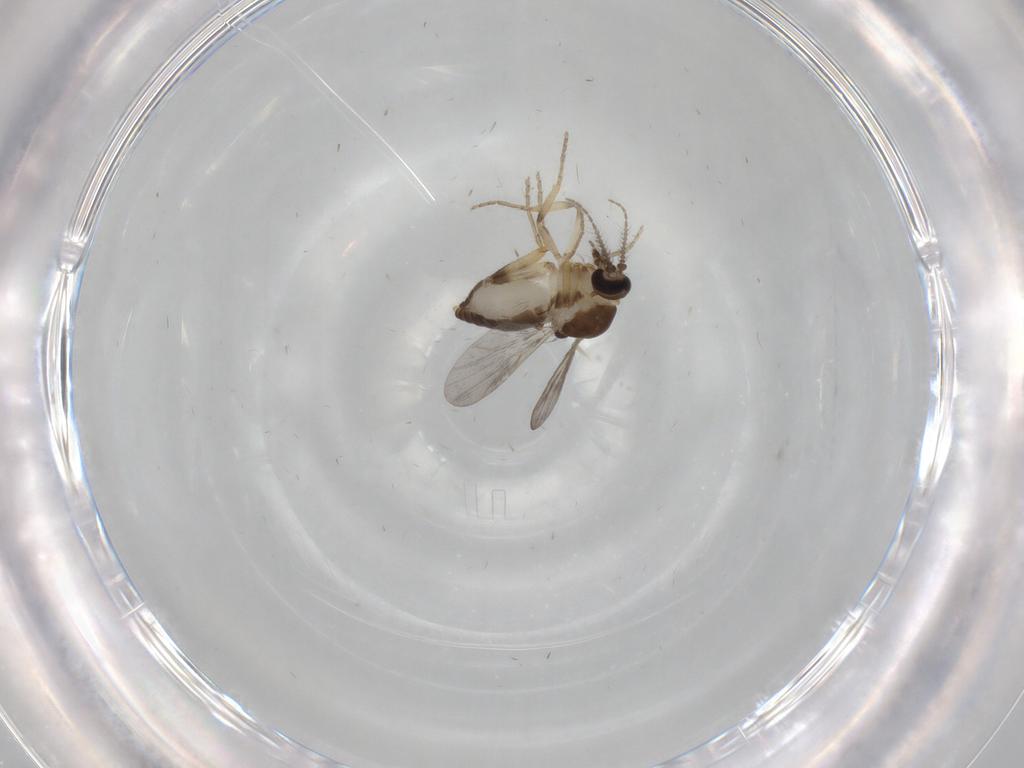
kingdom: Animalia
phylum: Arthropoda
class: Insecta
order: Diptera
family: Ceratopogonidae
